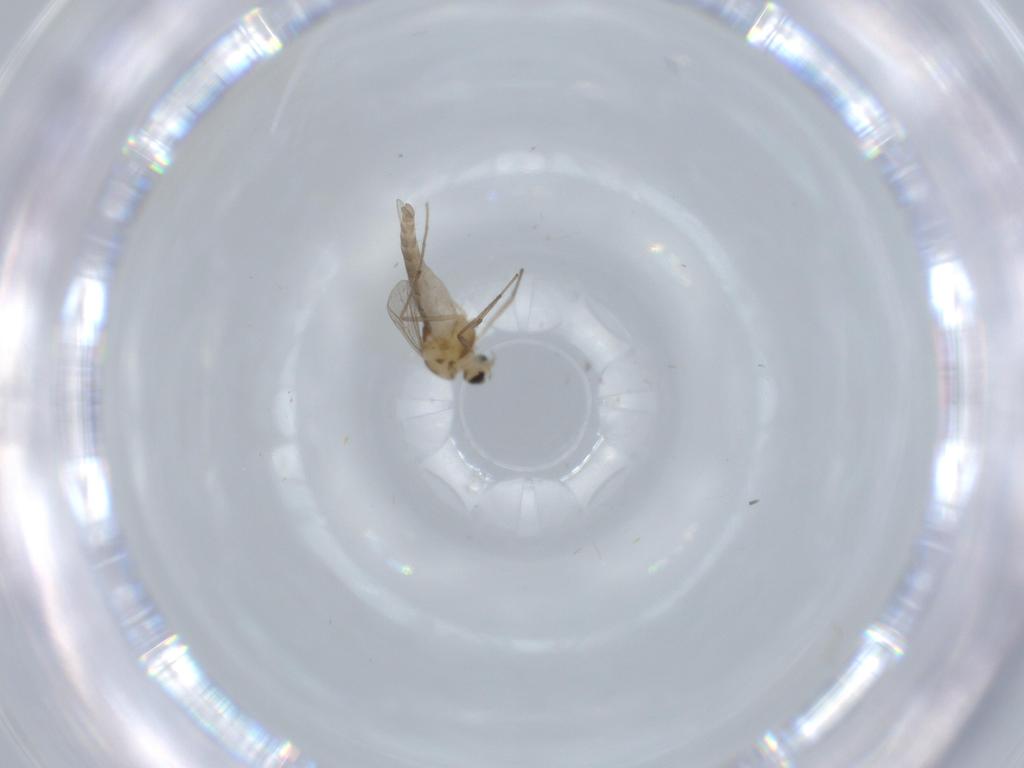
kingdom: Animalia
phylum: Arthropoda
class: Insecta
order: Diptera
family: Chironomidae
